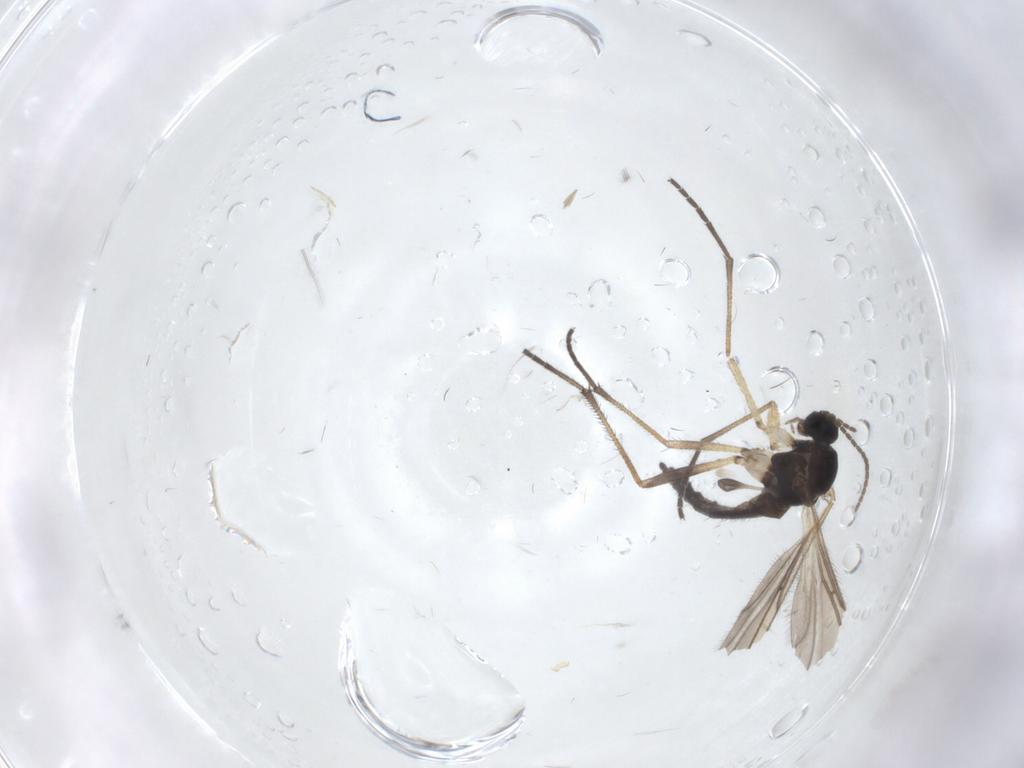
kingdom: Animalia
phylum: Arthropoda
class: Insecta
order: Diptera
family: Sciaridae
